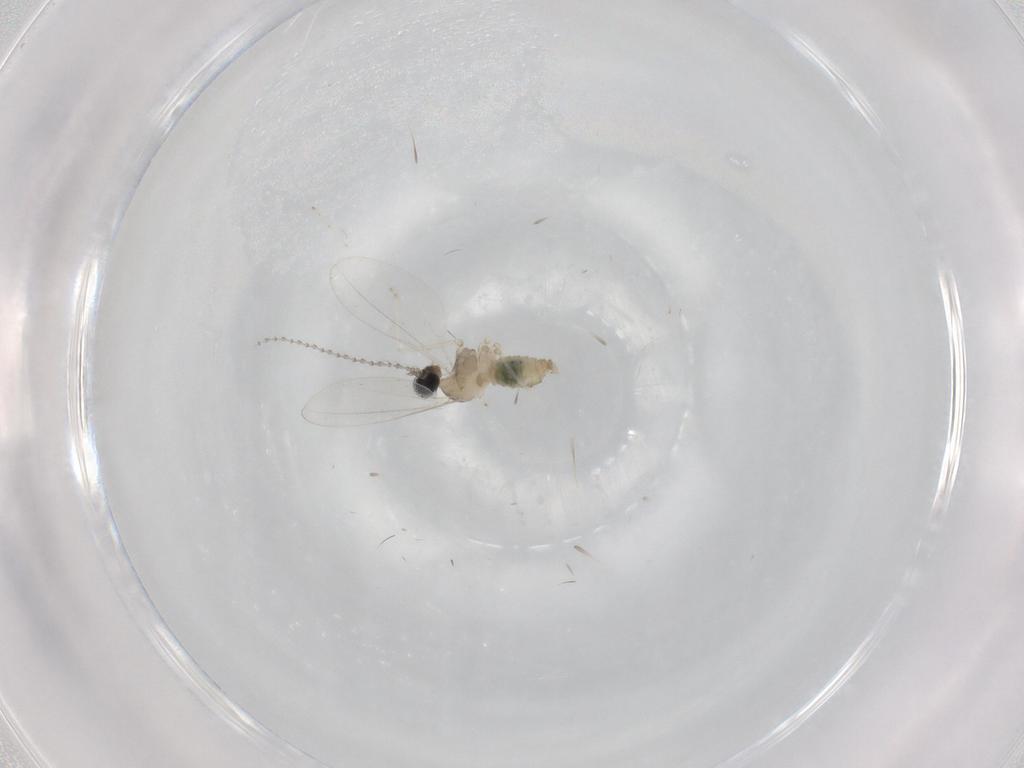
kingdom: Animalia
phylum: Arthropoda
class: Insecta
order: Diptera
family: Cecidomyiidae
